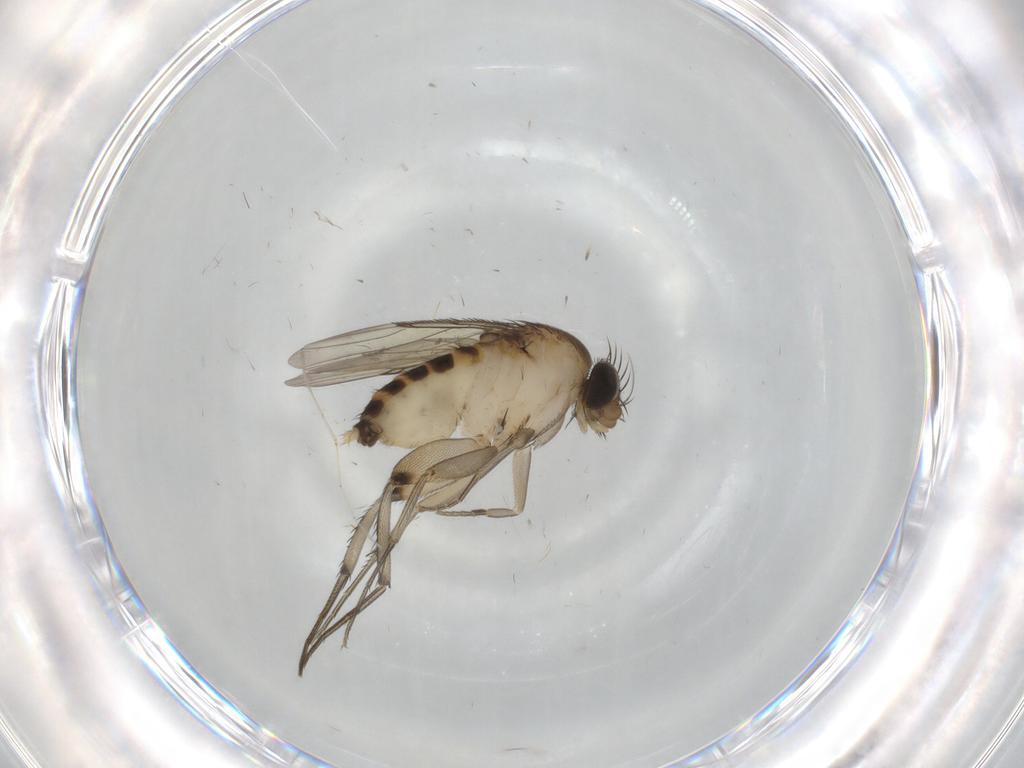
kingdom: Animalia
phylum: Arthropoda
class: Insecta
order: Diptera
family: Phoridae
